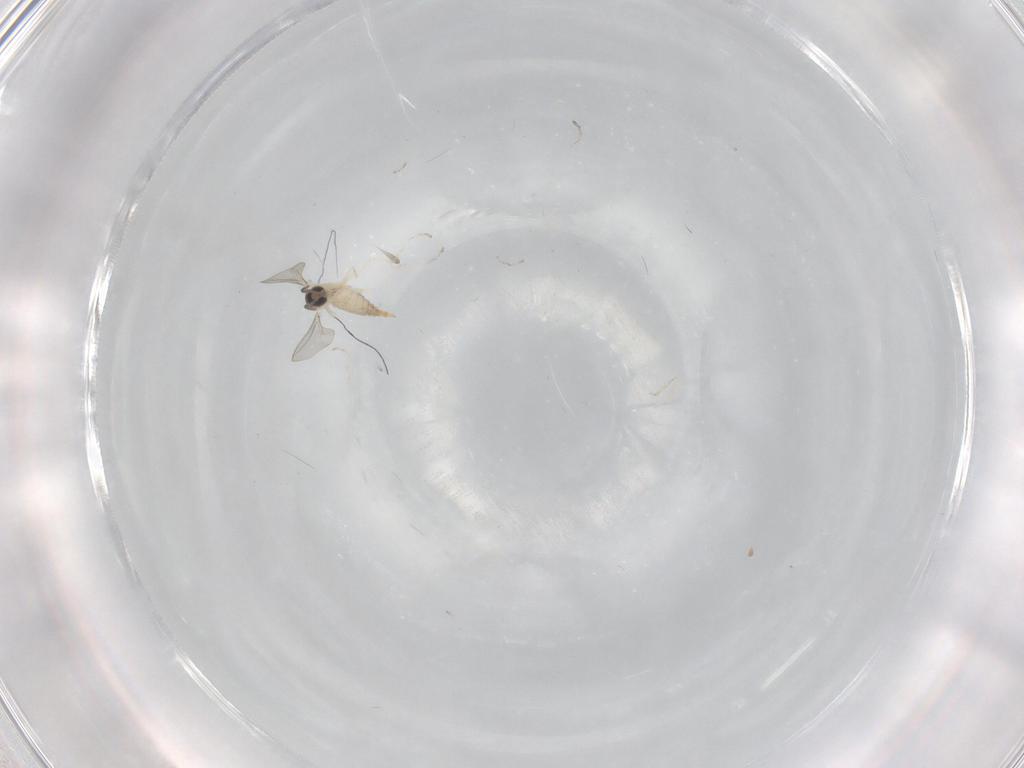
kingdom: Animalia
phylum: Arthropoda
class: Insecta
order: Diptera
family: Cecidomyiidae
